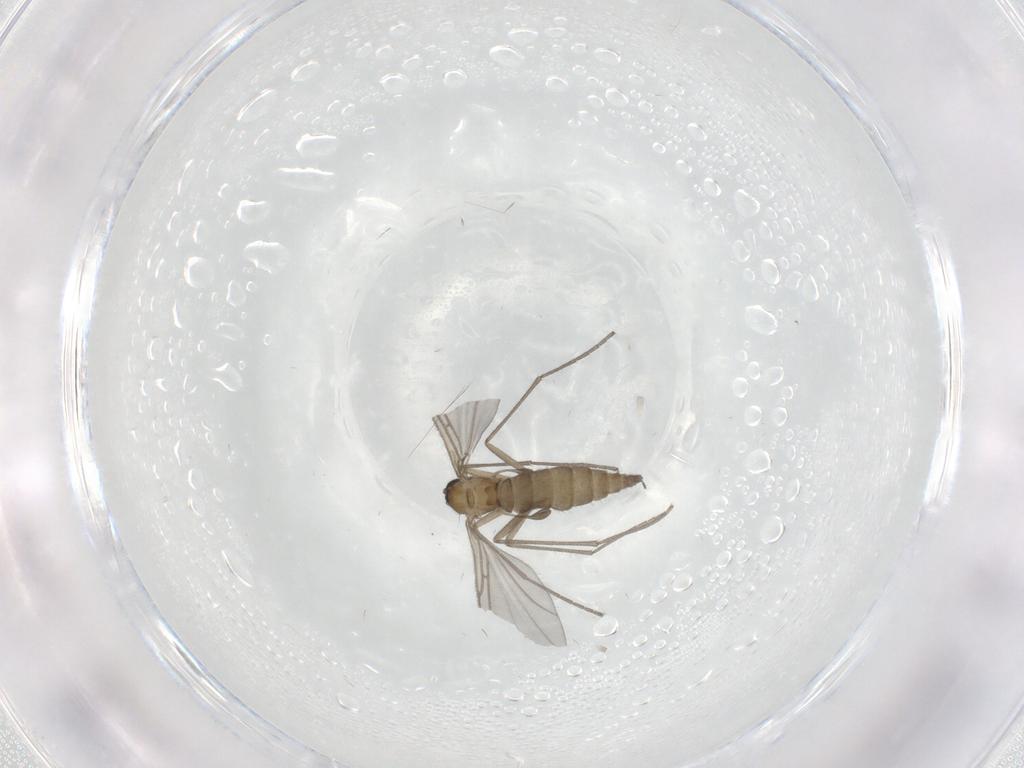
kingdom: Animalia
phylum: Arthropoda
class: Insecta
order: Diptera
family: Sciaridae
